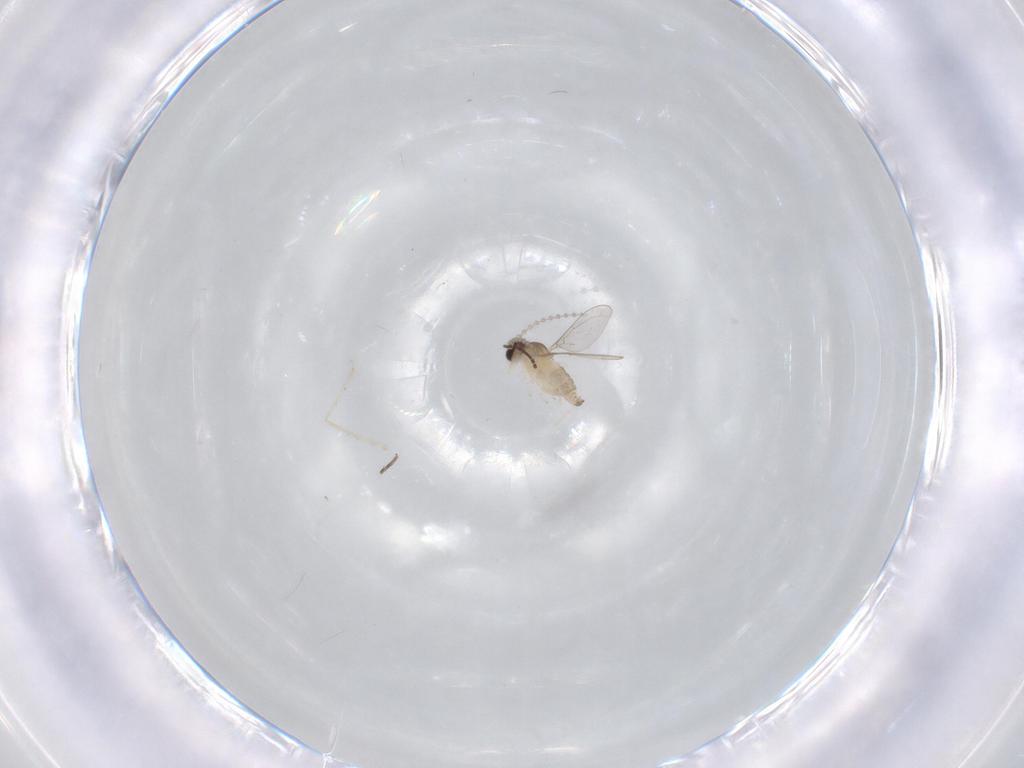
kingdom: Animalia
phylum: Arthropoda
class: Insecta
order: Diptera
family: Cecidomyiidae
